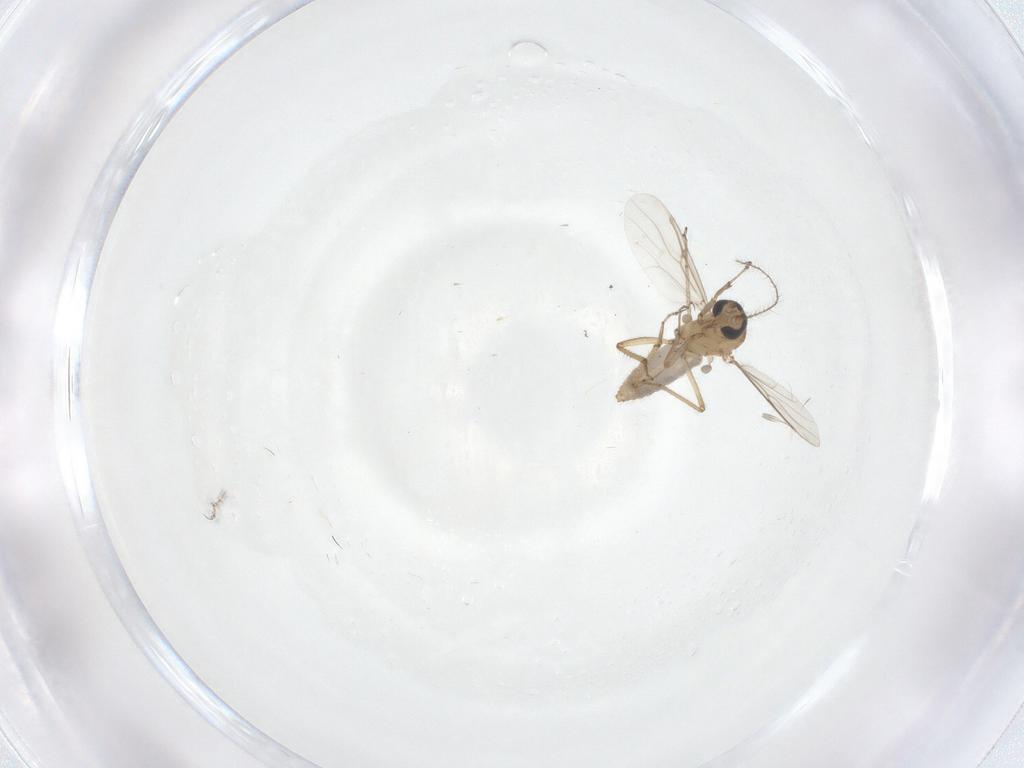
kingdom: Animalia
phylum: Arthropoda
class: Insecta
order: Diptera
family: Ceratopogonidae
